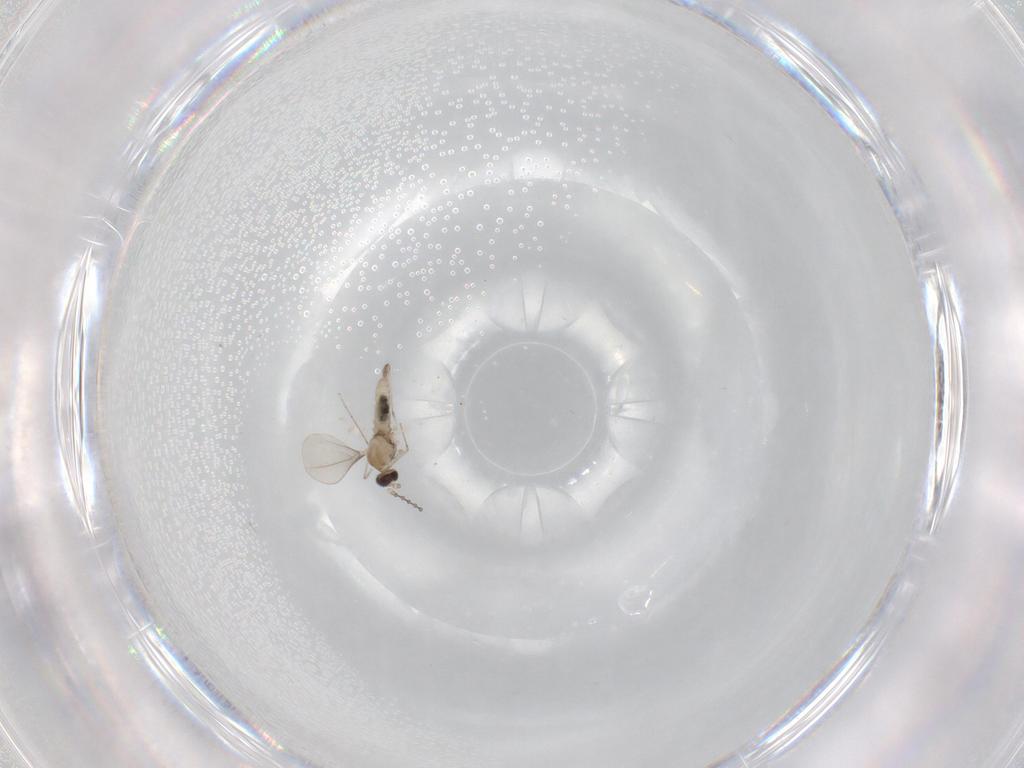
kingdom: Animalia
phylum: Arthropoda
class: Insecta
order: Diptera
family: Cecidomyiidae
